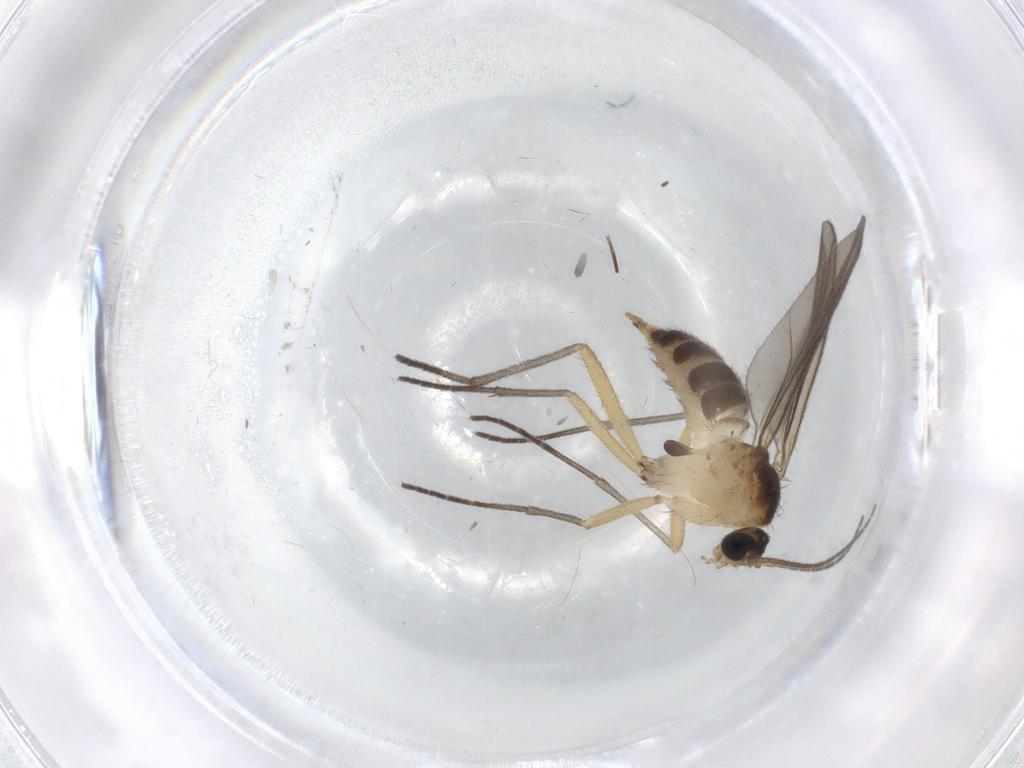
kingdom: Animalia
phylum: Arthropoda
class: Insecta
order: Diptera
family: Sciaridae
